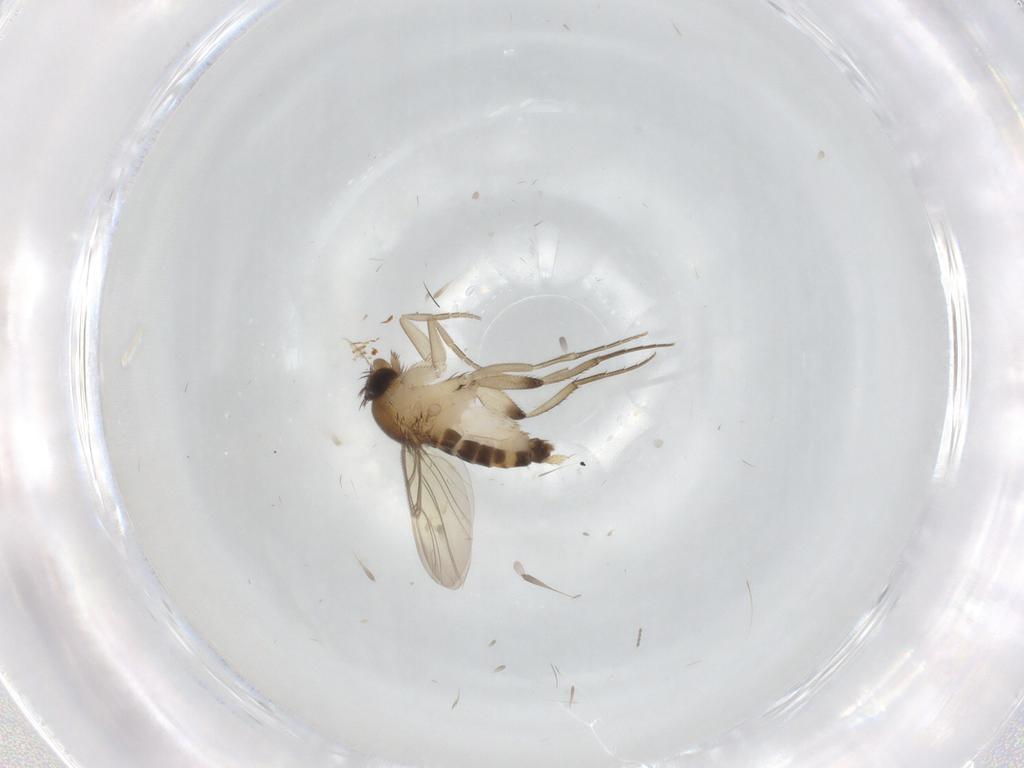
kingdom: Animalia
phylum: Arthropoda
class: Insecta
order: Diptera
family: Phoridae
